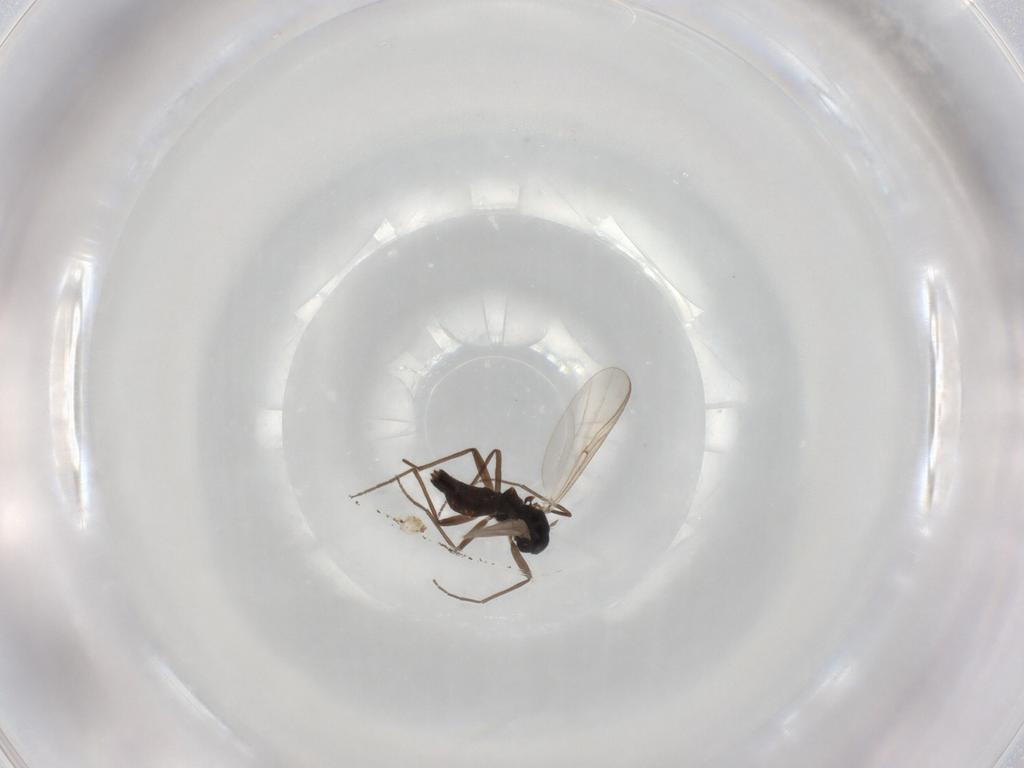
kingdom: Animalia
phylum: Arthropoda
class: Insecta
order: Diptera
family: Chironomidae
